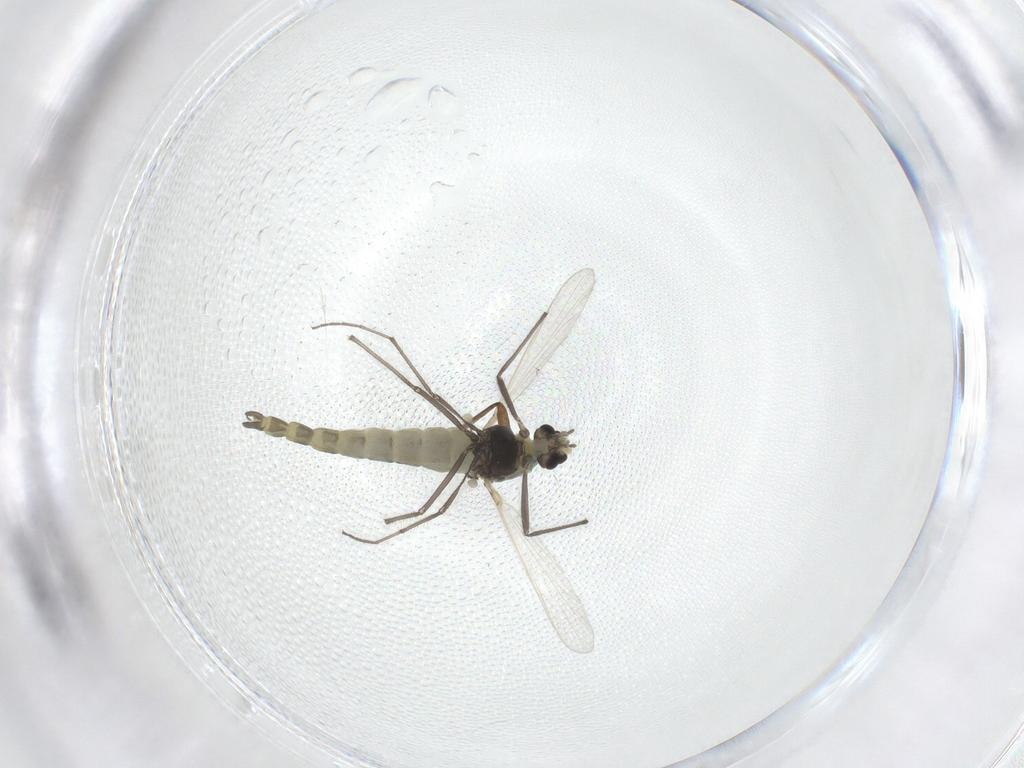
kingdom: Animalia
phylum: Arthropoda
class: Insecta
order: Diptera
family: Chironomidae
